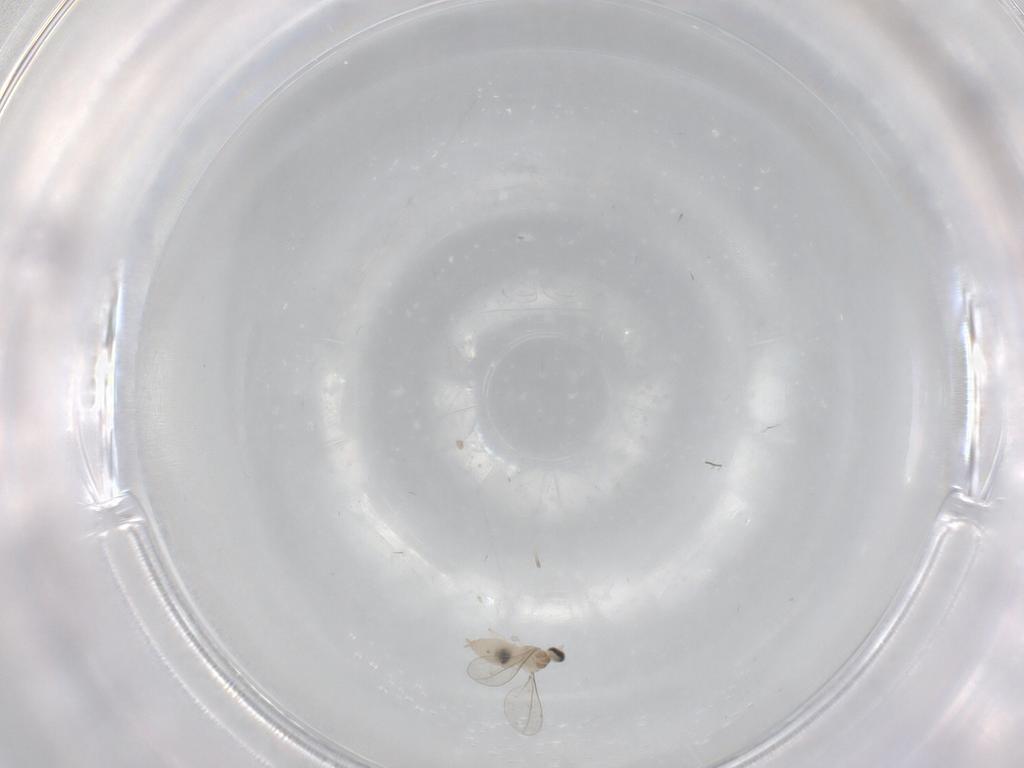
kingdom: Animalia
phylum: Arthropoda
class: Insecta
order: Diptera
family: Cecidomyiidae
